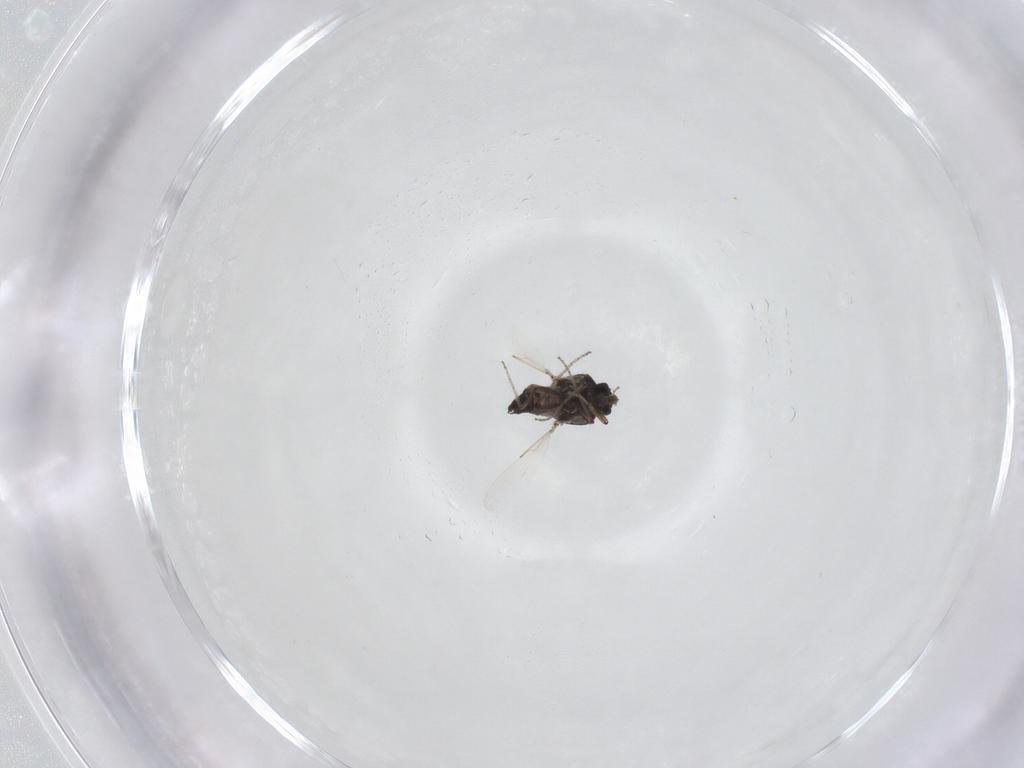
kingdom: Animalia
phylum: Arthropoda
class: Insecta
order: Diptera
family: Ceratopogonidae
